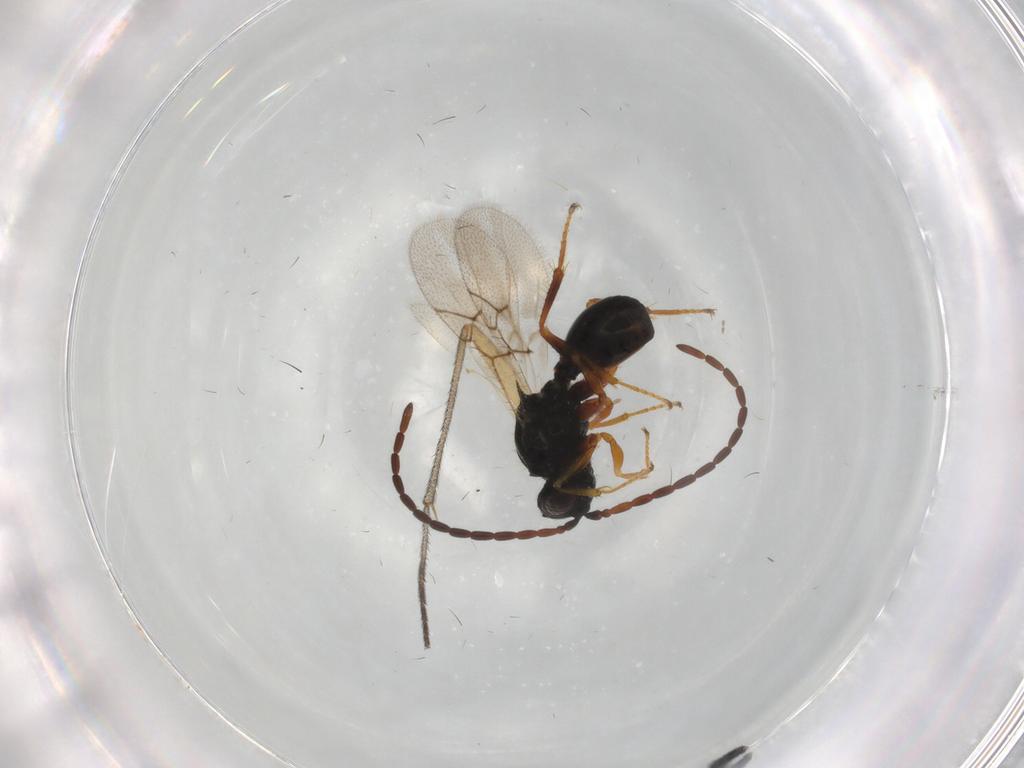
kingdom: Animalia
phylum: Arthropoda
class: Insecta
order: Hymenoptera
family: Figitidae
